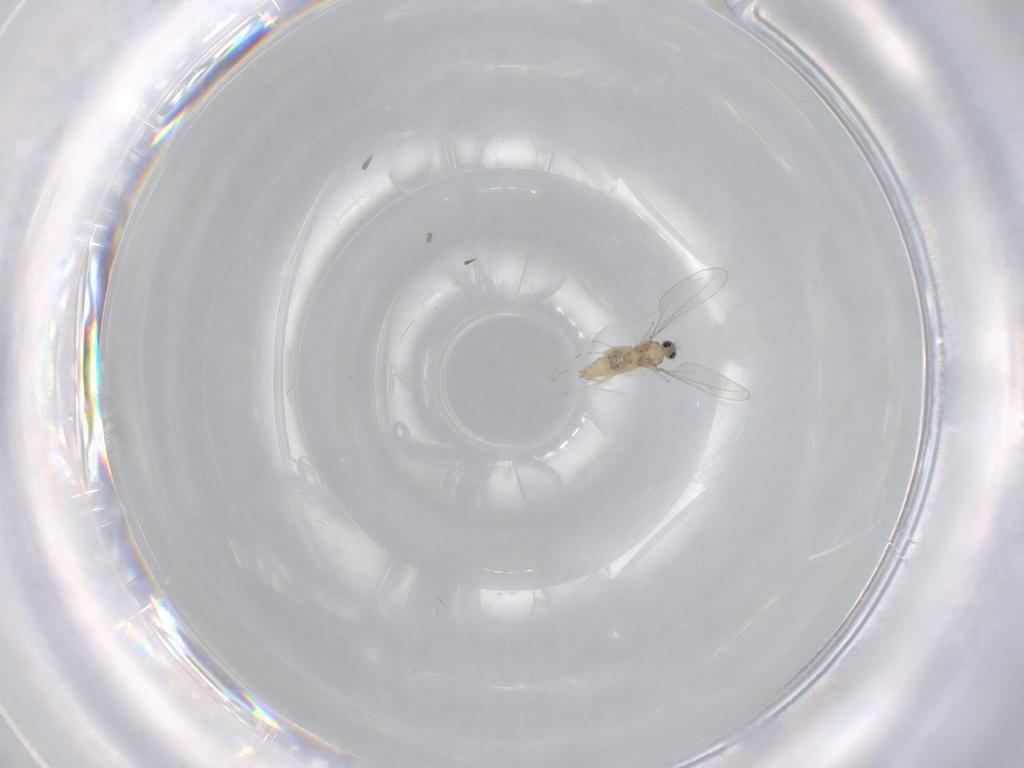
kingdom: Animalia
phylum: Arthropoda
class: Insecta
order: Diptera
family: Cecidomyiidae
